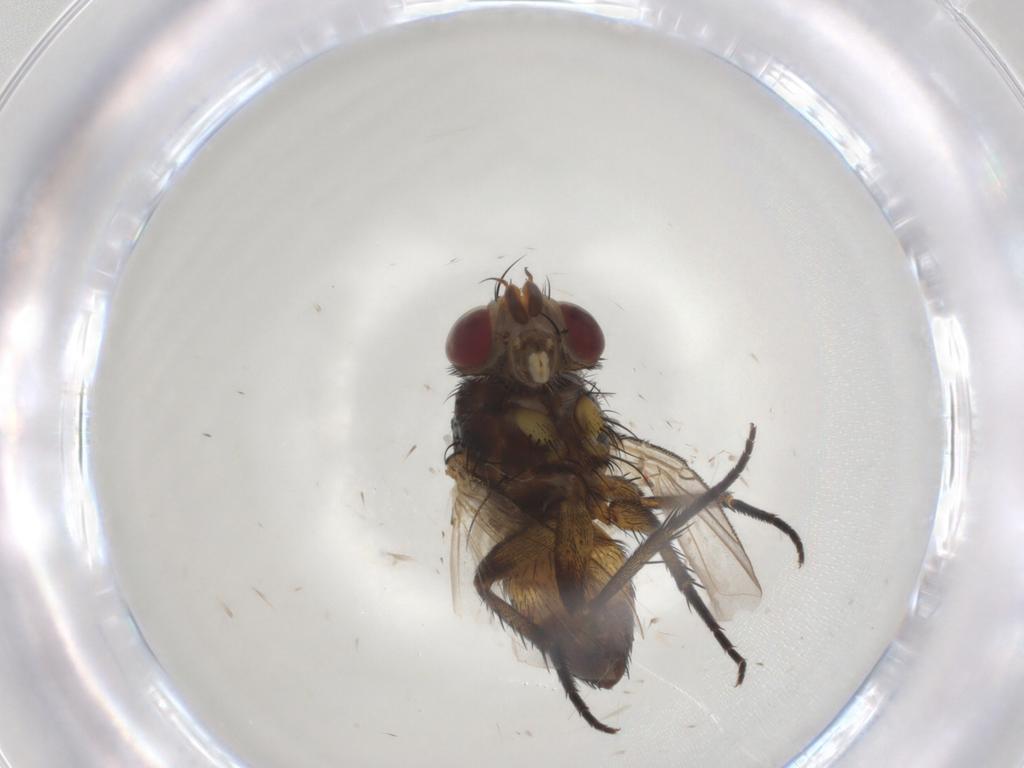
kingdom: Animalia
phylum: Arthropoda
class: Insecta
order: Diptera
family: Tachinidae
